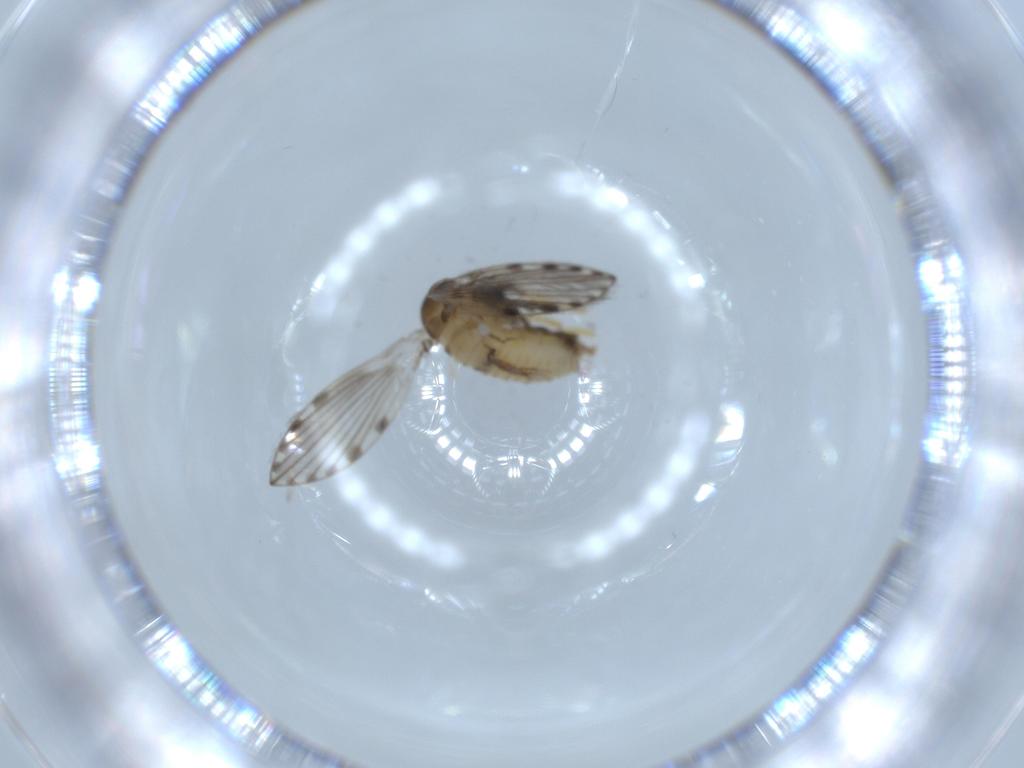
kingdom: Animalia
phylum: Arthropoda
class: Insecta
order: Diptera
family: Psychodidae
